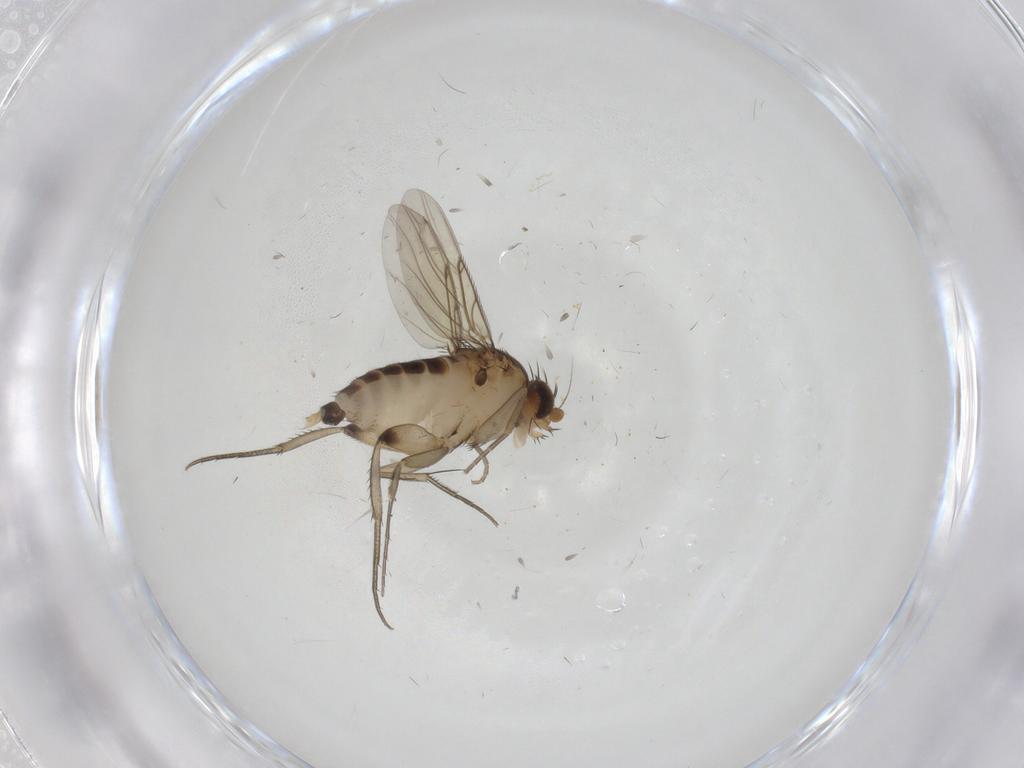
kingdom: Animalia
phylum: Arthropoda
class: Insecta
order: Diptera
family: Phoridae
